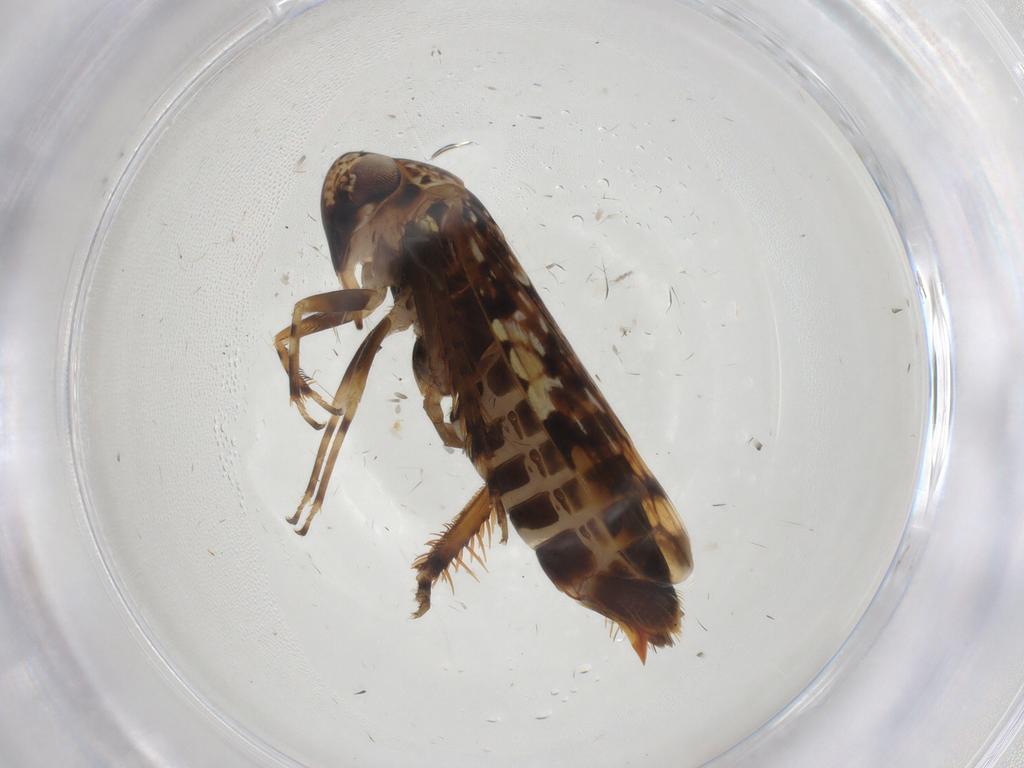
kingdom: Animalia
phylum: Arthropoda
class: Insecta
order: Hemiptera
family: Cicadellidae
